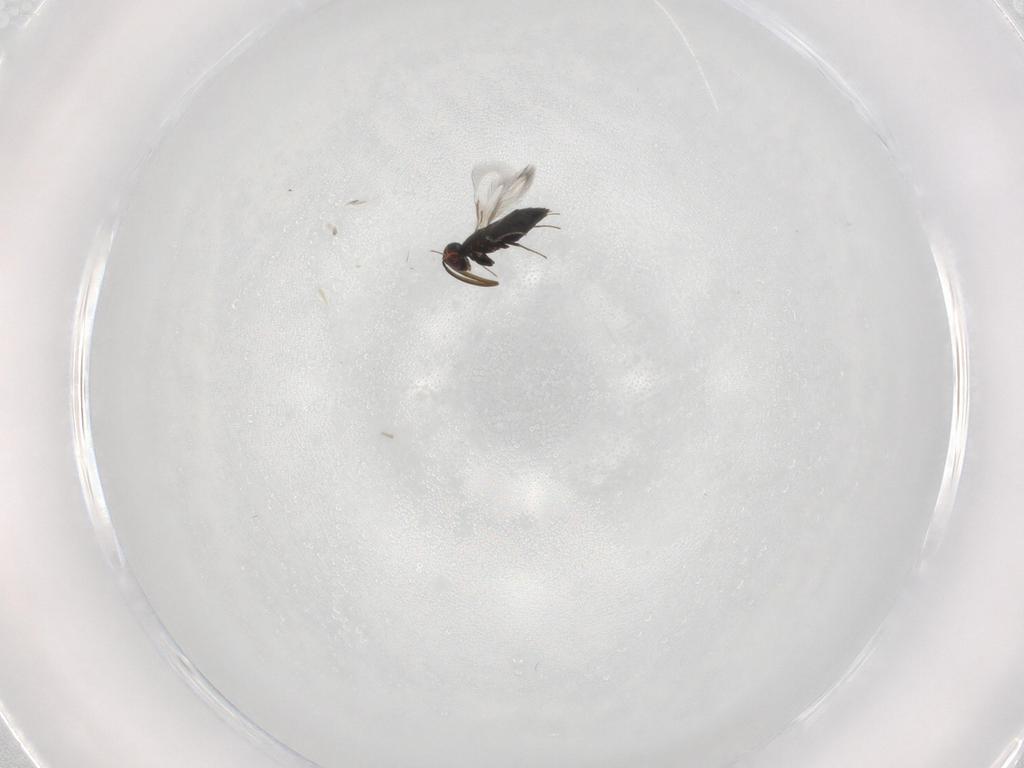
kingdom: Animalia
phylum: Arthropoda
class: Insecta
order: Hymenoptera
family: Signiphoridae
